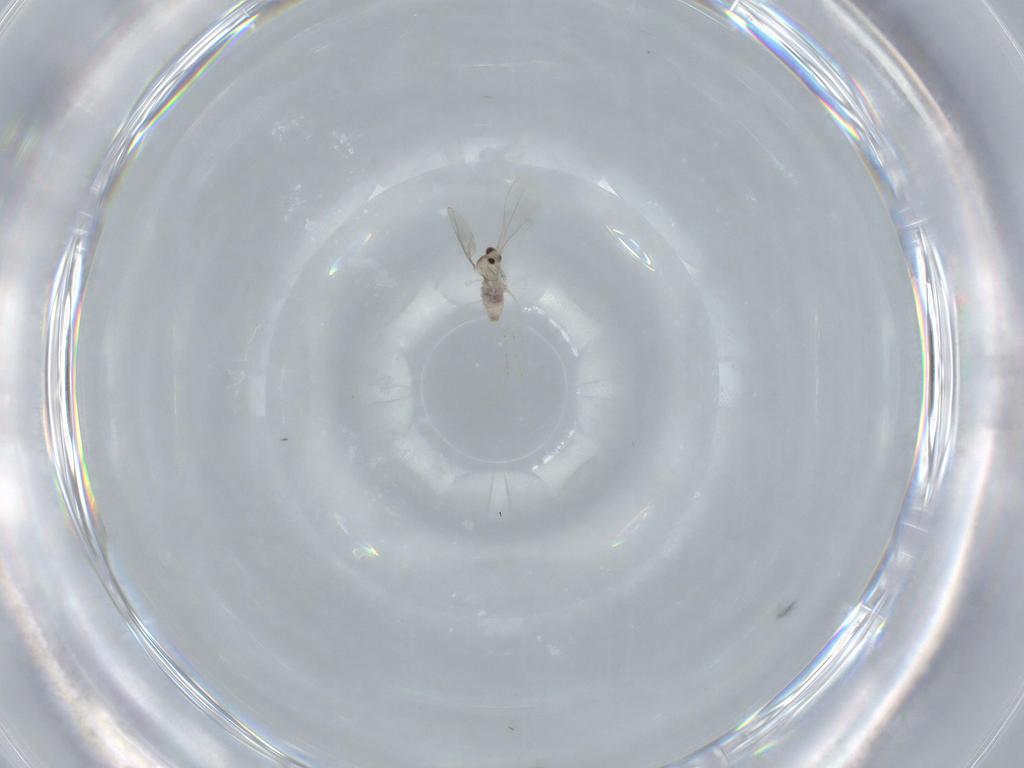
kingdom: Animalia
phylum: Arthropoda
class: Insecta
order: Diptera
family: Cecidomyiidae
